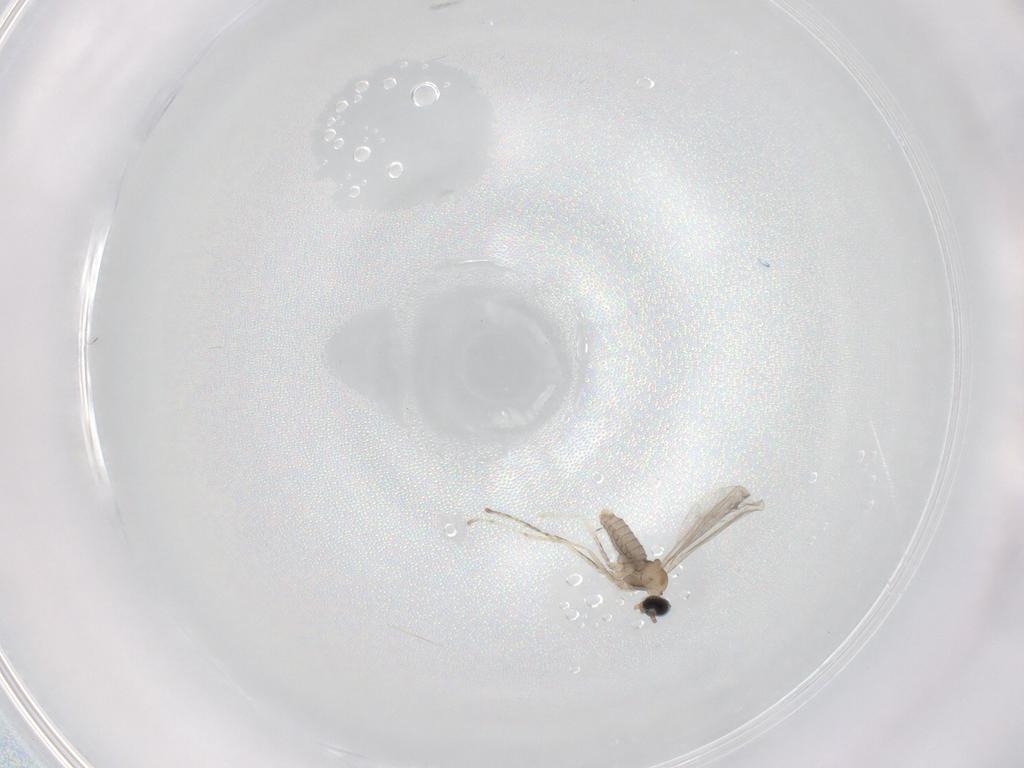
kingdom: Animalia
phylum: Arthropoda
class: Insecta
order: Diptera
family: Cecidomyiidae
